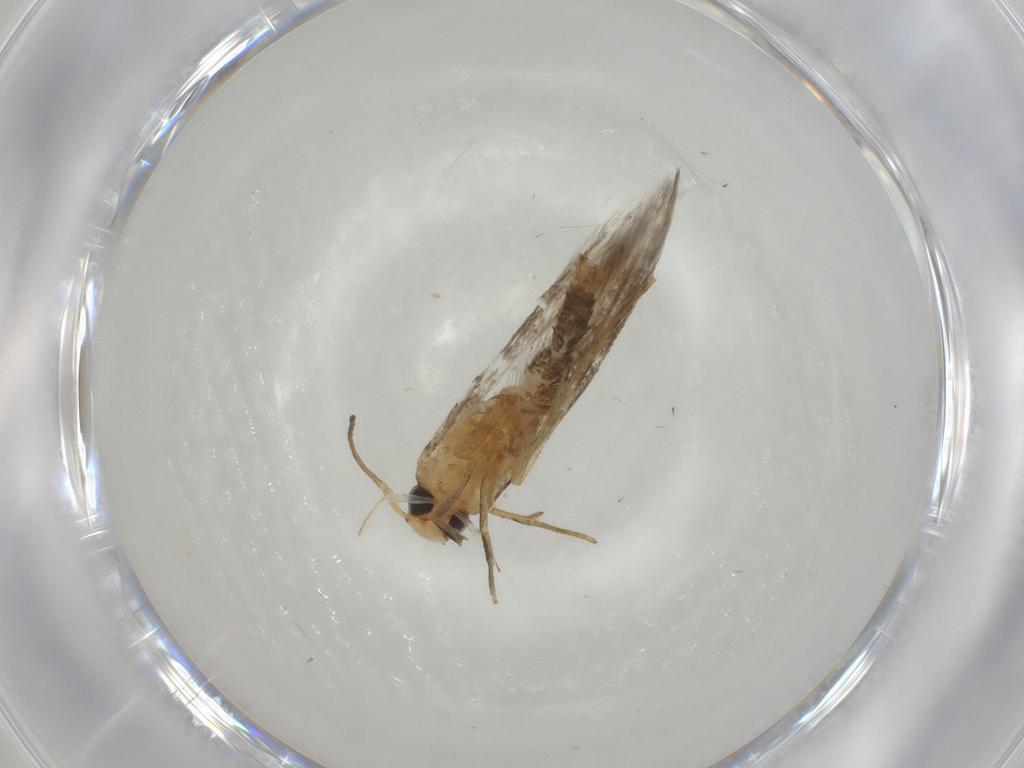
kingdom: Animalia
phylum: Arthropoda
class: Insecta
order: Lepidoptera
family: Elachistidae
